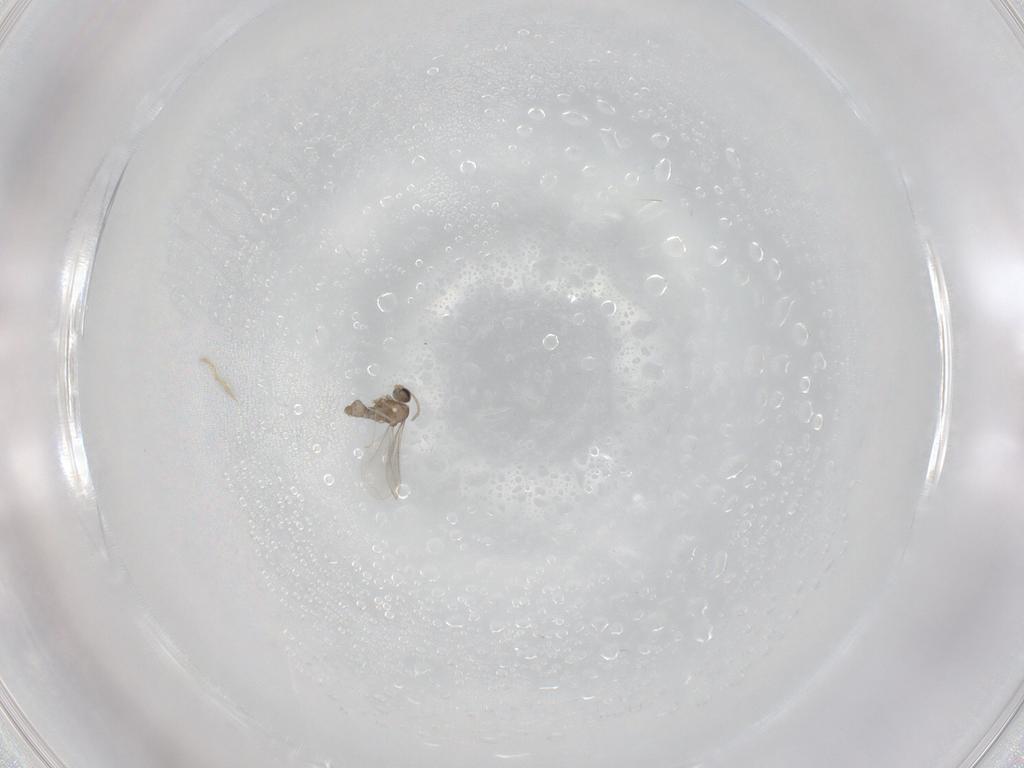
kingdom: Animalia
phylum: Arthropoda
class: Insecta
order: Diptera
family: Cecidomyiidae
